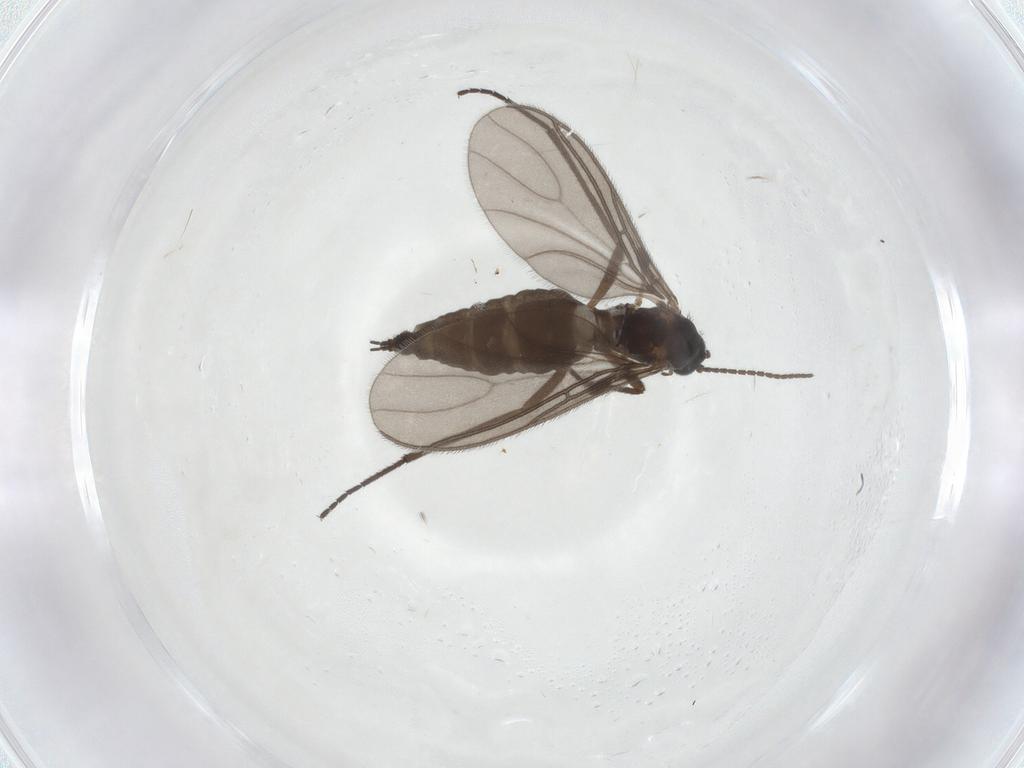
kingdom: Animalia
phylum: Arthropoda
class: Insecta
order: Diptera
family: Sciaridae
